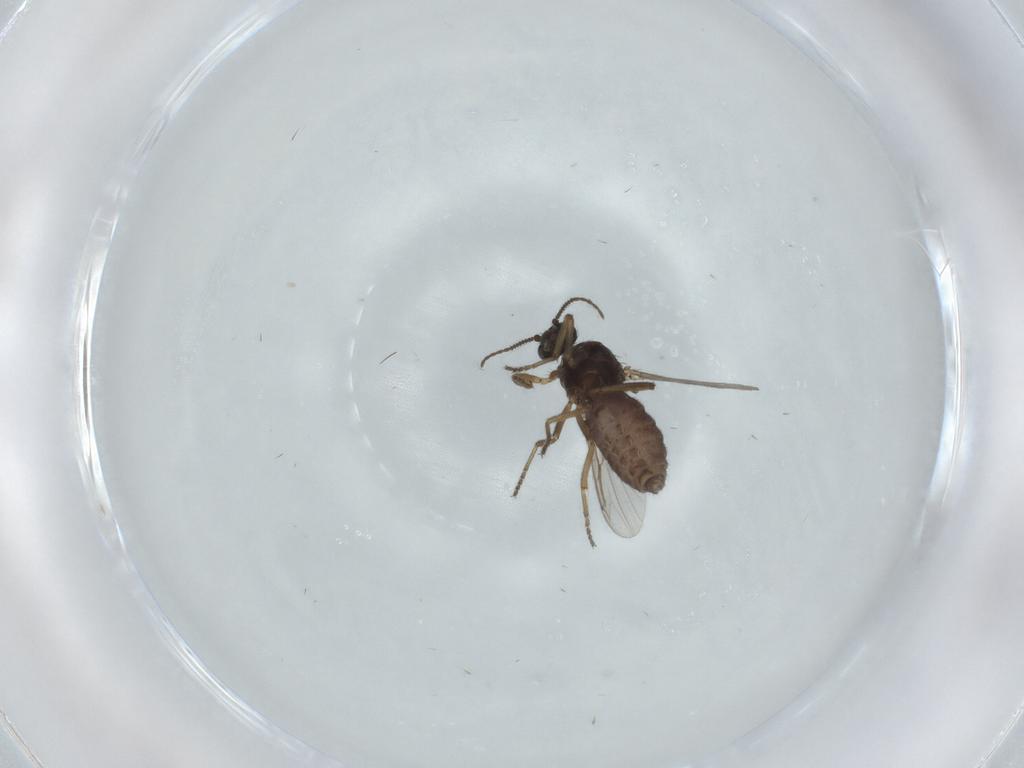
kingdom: Animalia
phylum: Arthropoda
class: Insecta
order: Diptera
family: Ceratopogonidae
